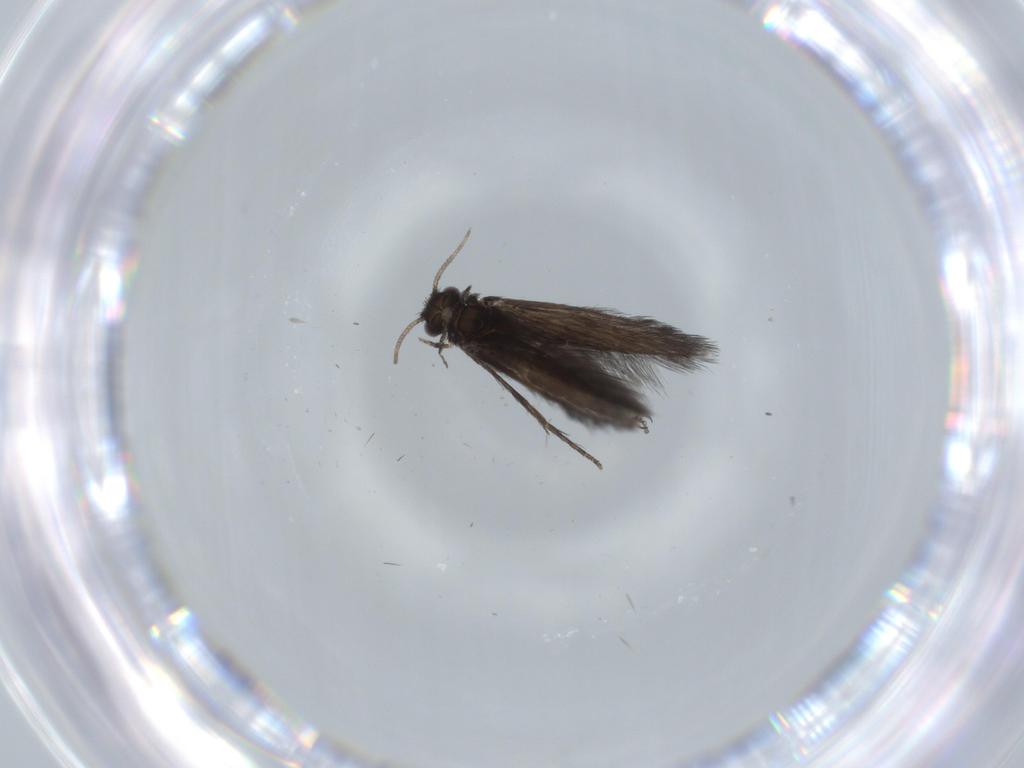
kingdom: Animalia
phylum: Arthropoda
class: Insecta
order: Trichoptera
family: Hydroptilidae
